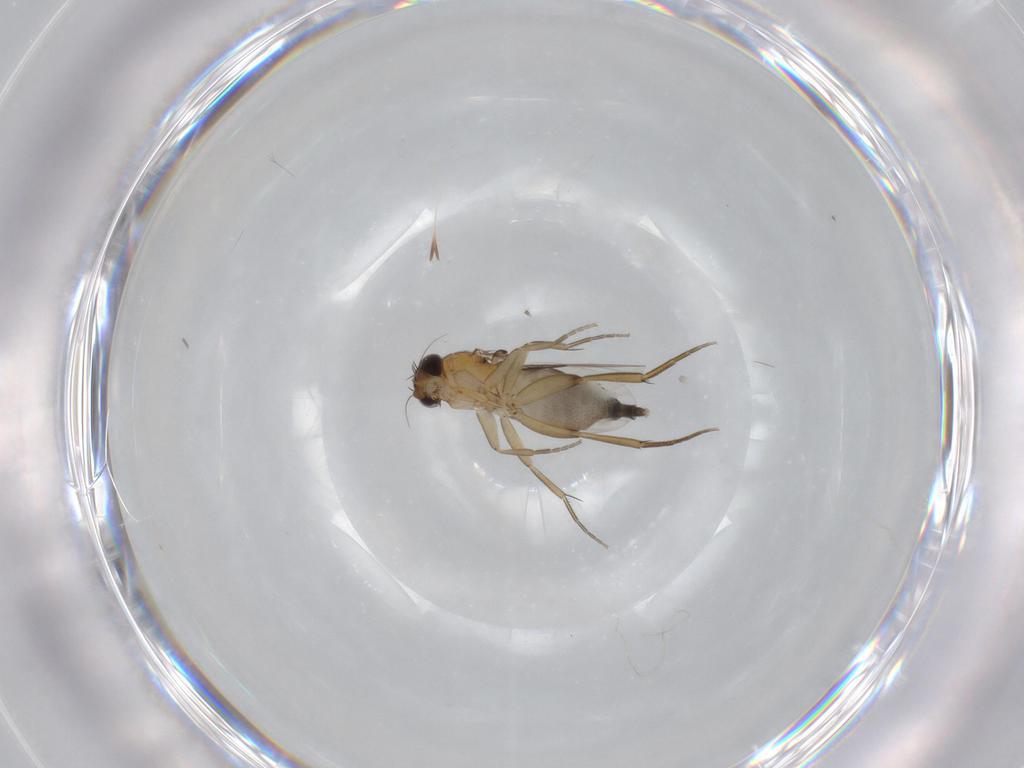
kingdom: Animalia
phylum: Arthropoda
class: Insecta
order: Diptera
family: Phoridae
